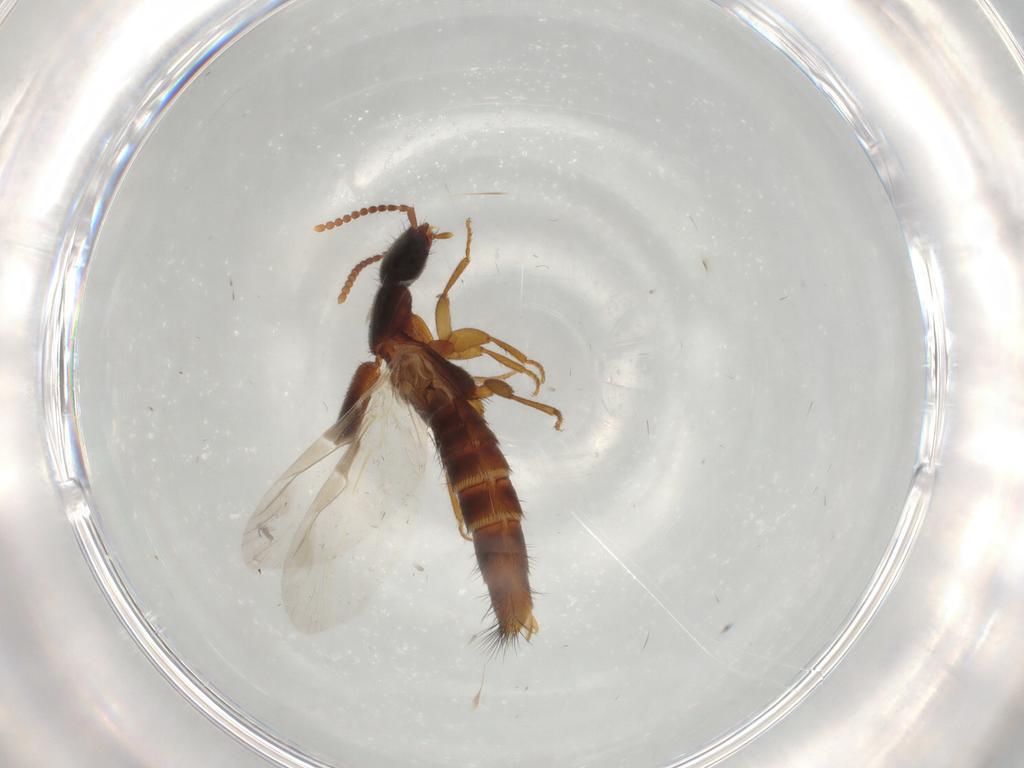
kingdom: Animalia
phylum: Arthropoda
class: Insecta
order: Coleoptera
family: Staphylinidae
